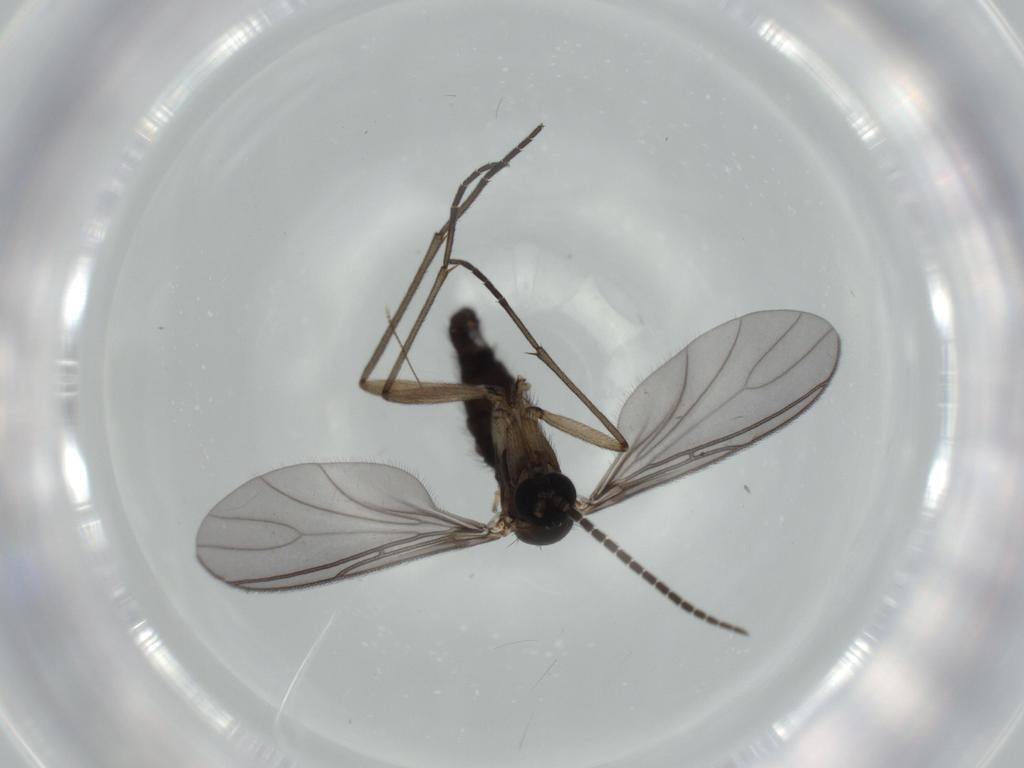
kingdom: Animalia
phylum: Arthropoda
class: Insecta
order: Diptera
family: Sciaridae
